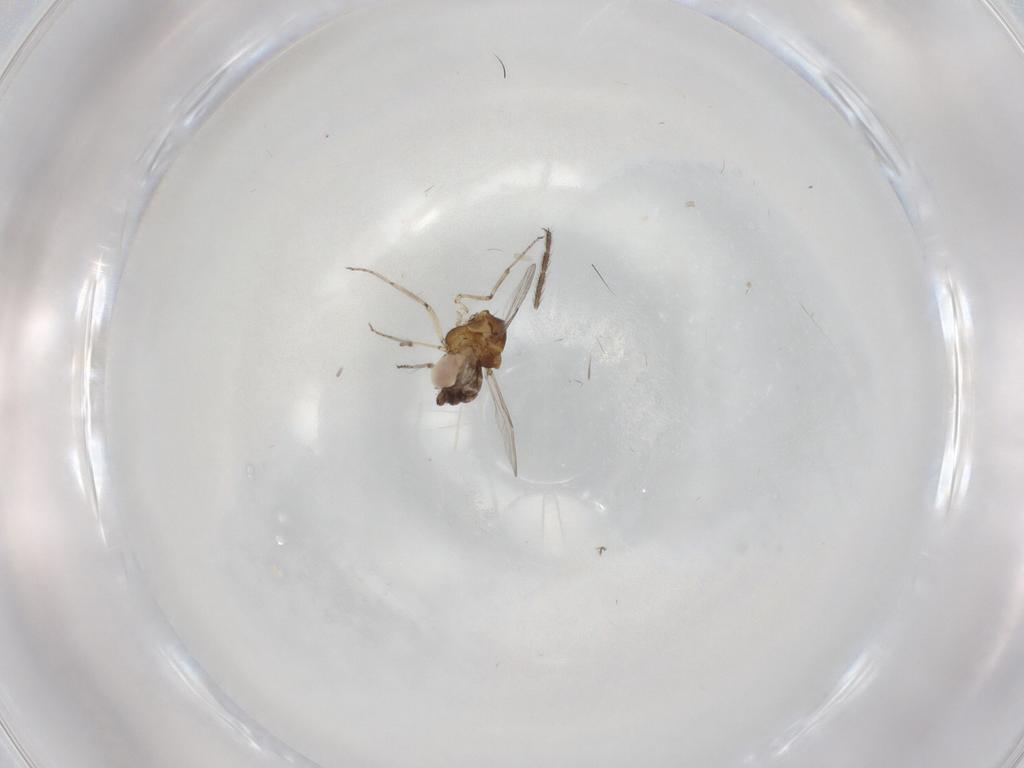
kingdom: Animalia
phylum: Arthropoda
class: Insecta
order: Diptera
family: Ceratopogonidae
